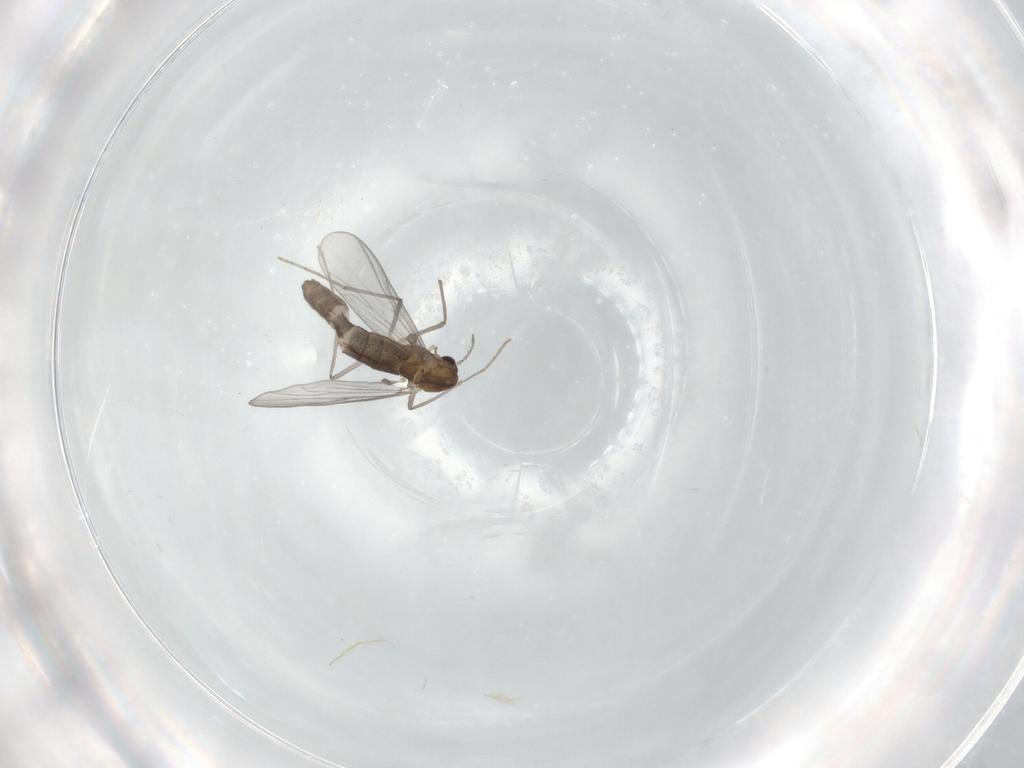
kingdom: Animalia
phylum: Arthropoda
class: Insecta
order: Diptera
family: Chironomidae
